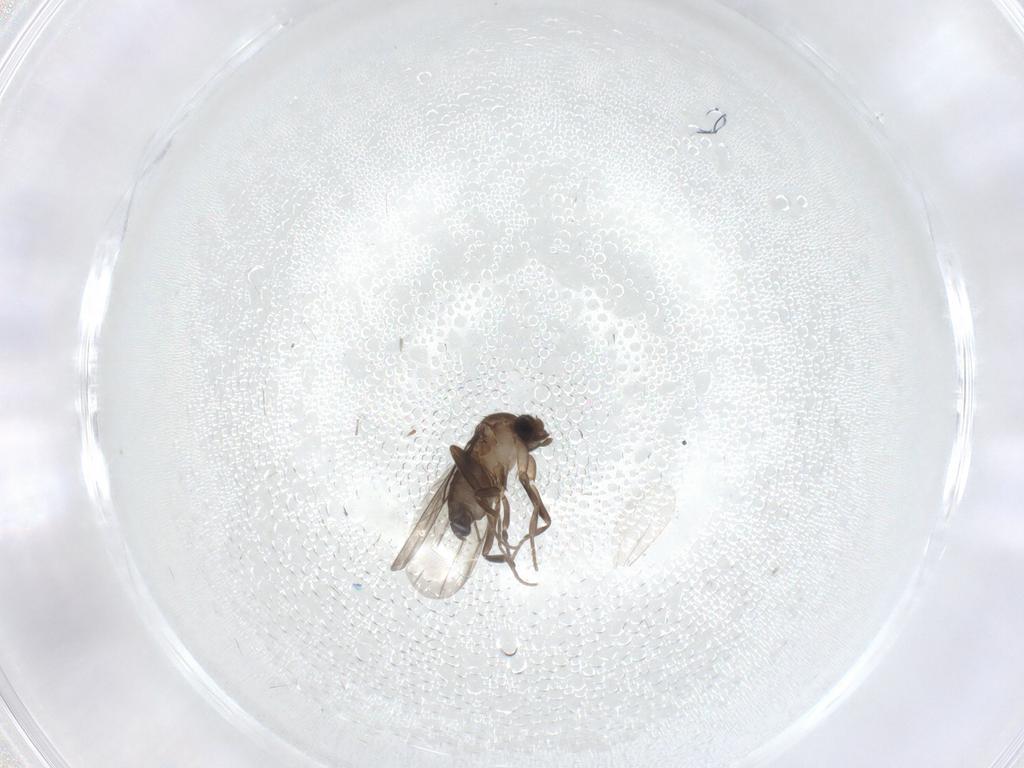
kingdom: Animalia
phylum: Arthropoda
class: Insecta
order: Diptera
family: Phoridae
